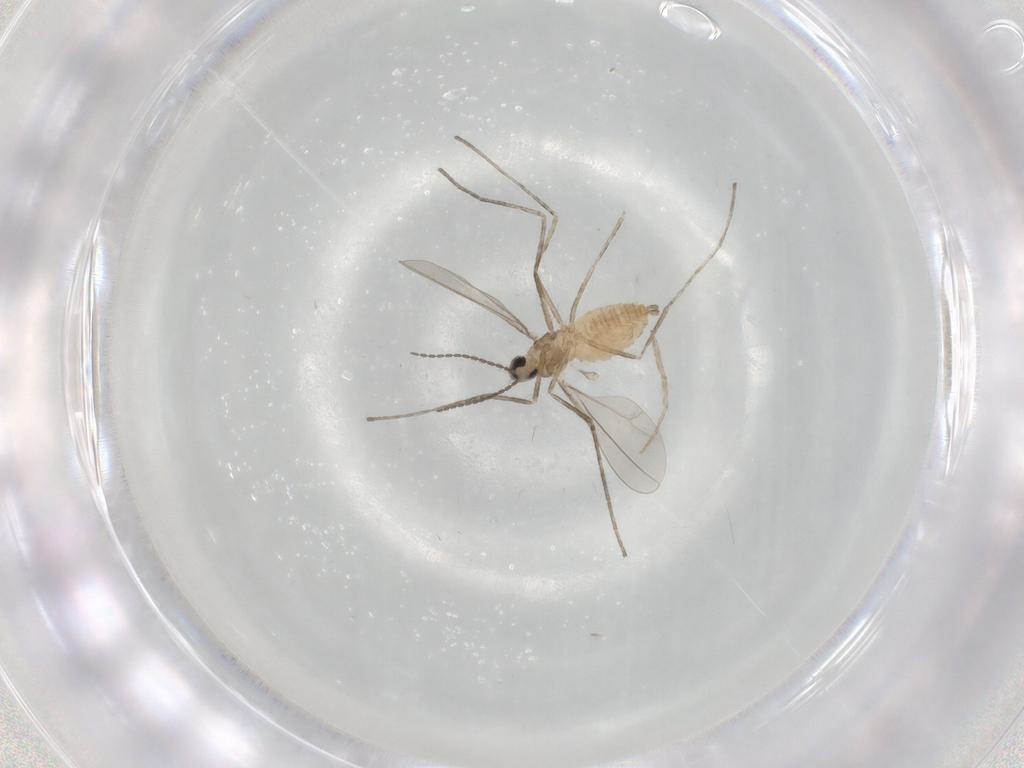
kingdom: Animalia
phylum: Arthropoda
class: Insecta
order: Diptera
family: Cecidomyiidae
